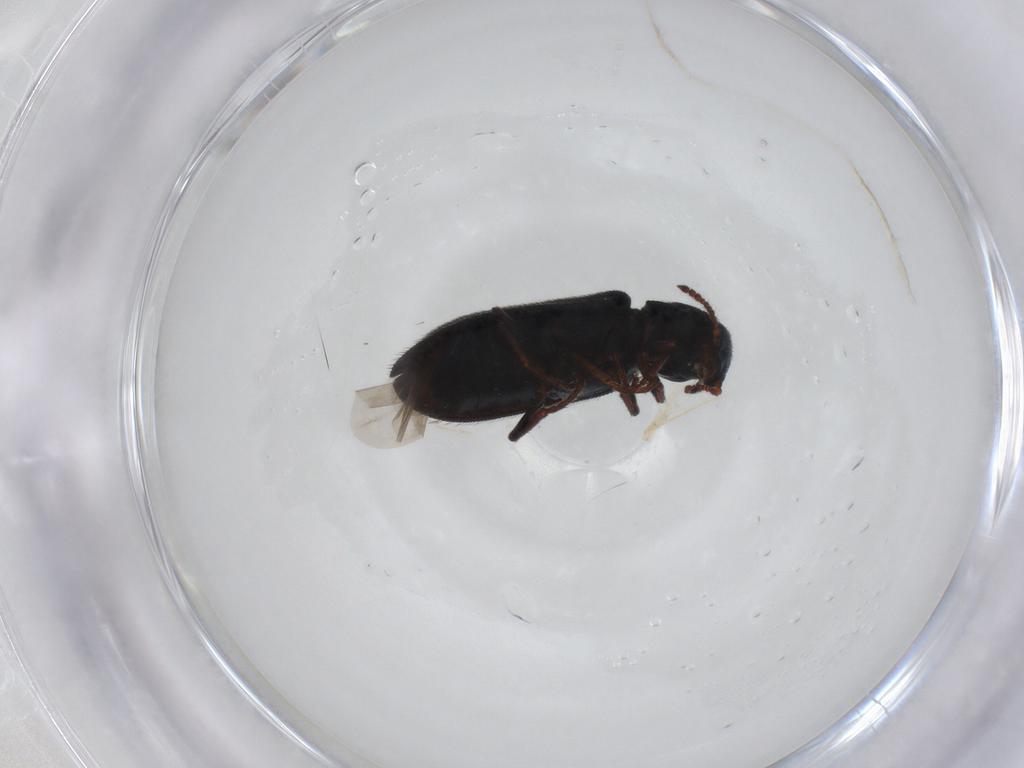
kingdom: Animalia
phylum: Arthropoda
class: Insecta
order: Coleoptera
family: Melyridae
